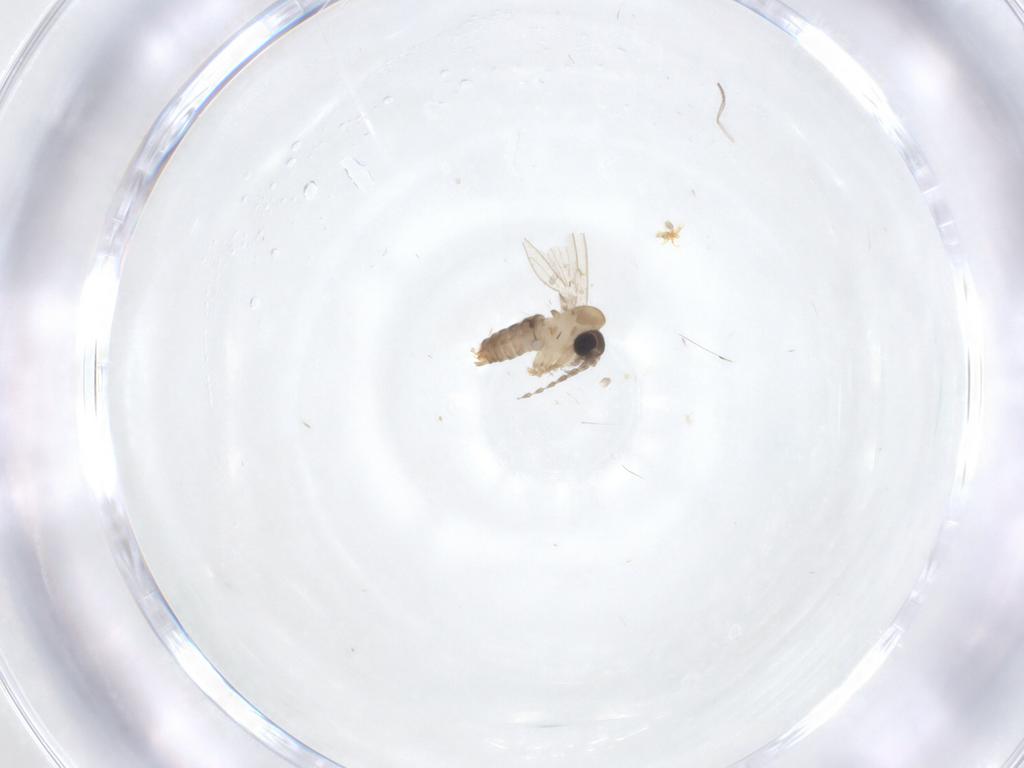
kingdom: Animalia
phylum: Arthropoda
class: Insecta
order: Diptera
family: Psychodidae
